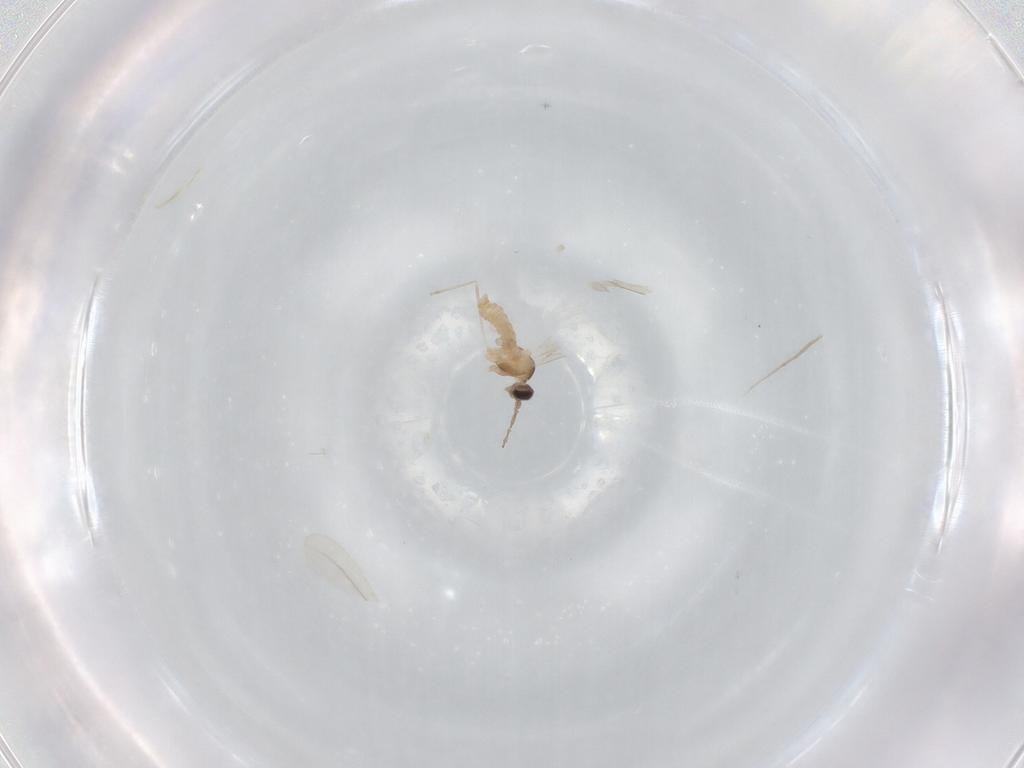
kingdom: Animalia
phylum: Arthropoda
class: Insecta
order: Diptera
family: Cecidomyiidae
